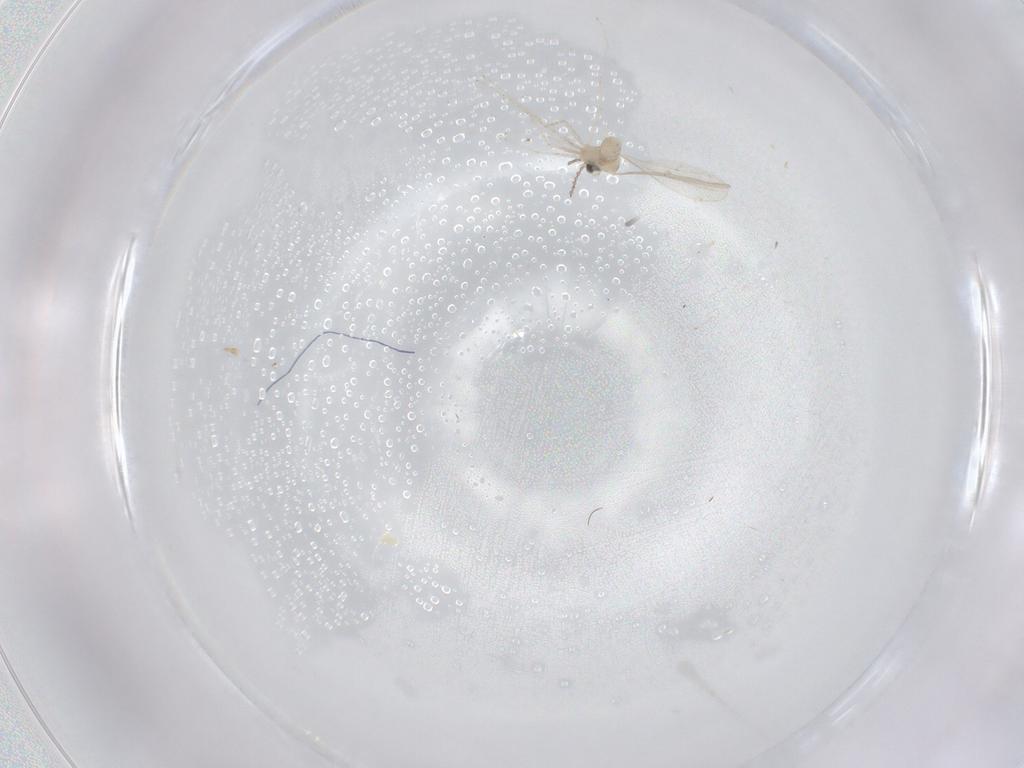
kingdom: Animalia
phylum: Arthropoda
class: Insecta
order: Diptera
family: Cecidomyiidae
